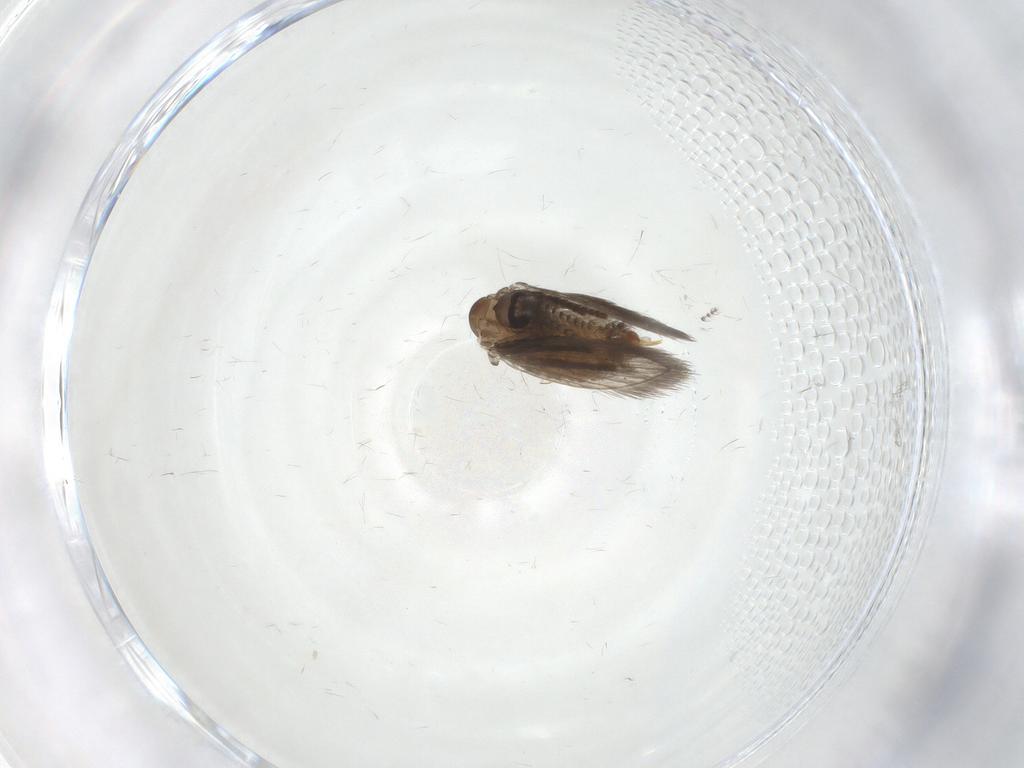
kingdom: Animalia
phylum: Arthropoda
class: Insecta
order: Diptera
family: Psychodidae
